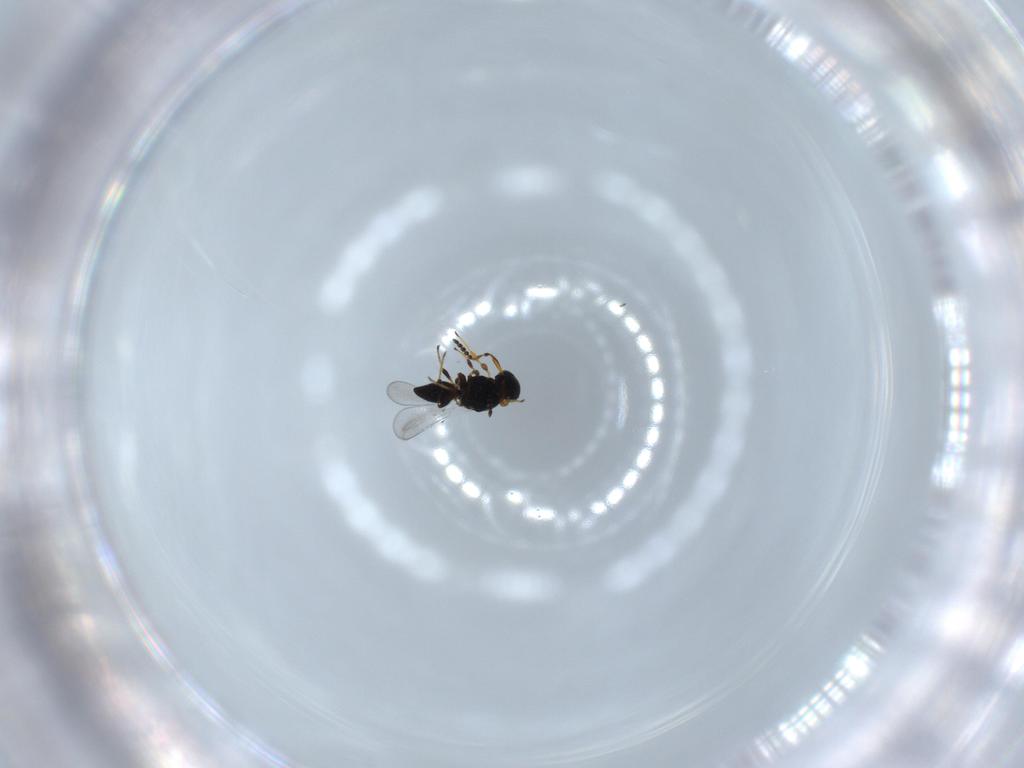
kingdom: Animalia
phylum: Arthropoda
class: Insecta
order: Hymenoptera
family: Platygastridae
